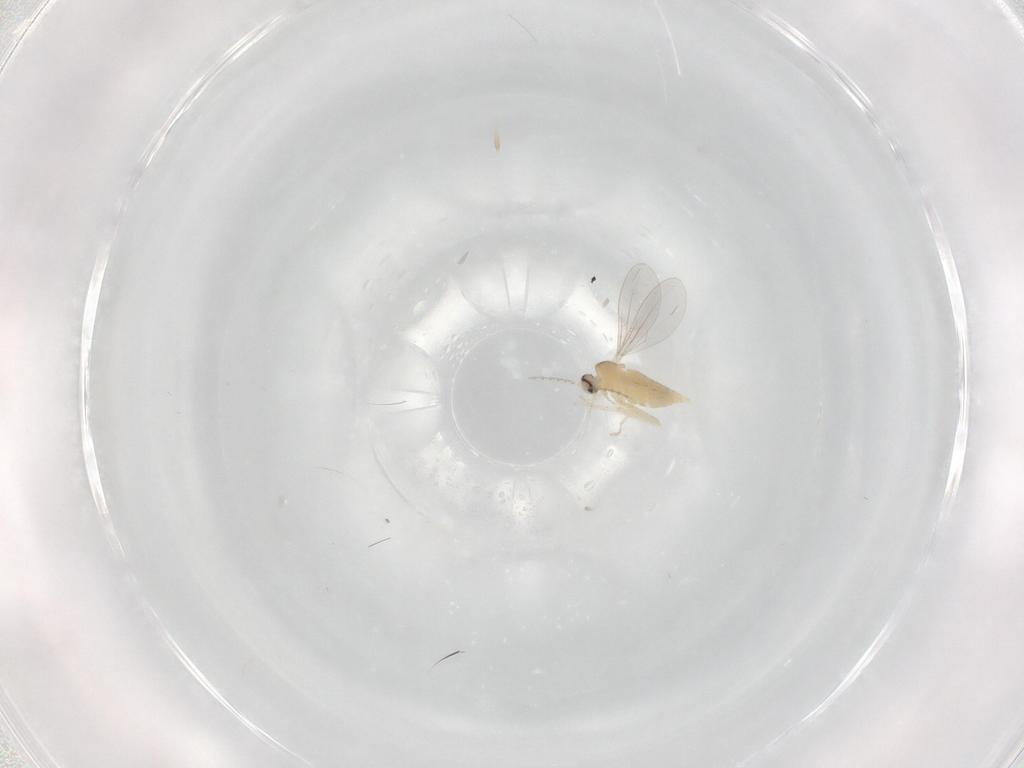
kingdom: Animalia
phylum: Arthropoda
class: Insecta
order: Diptera
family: Cecidomyiidae
